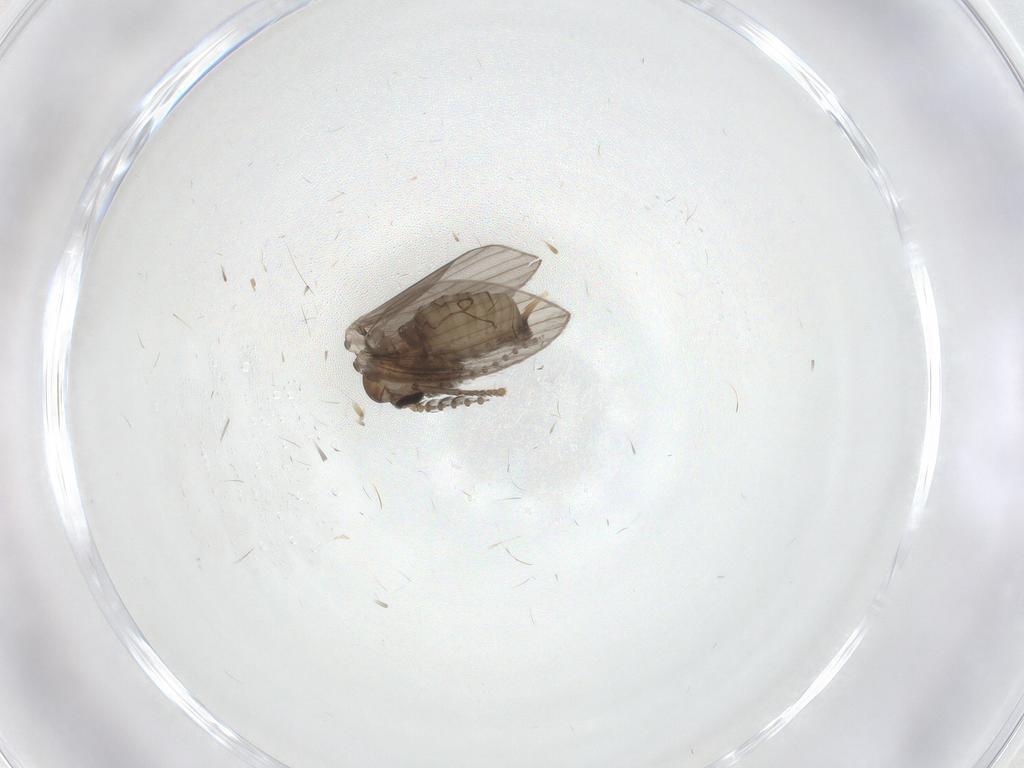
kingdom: Animalia
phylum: Arthropoda
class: Insecta
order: Diptera
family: Psychodidae
